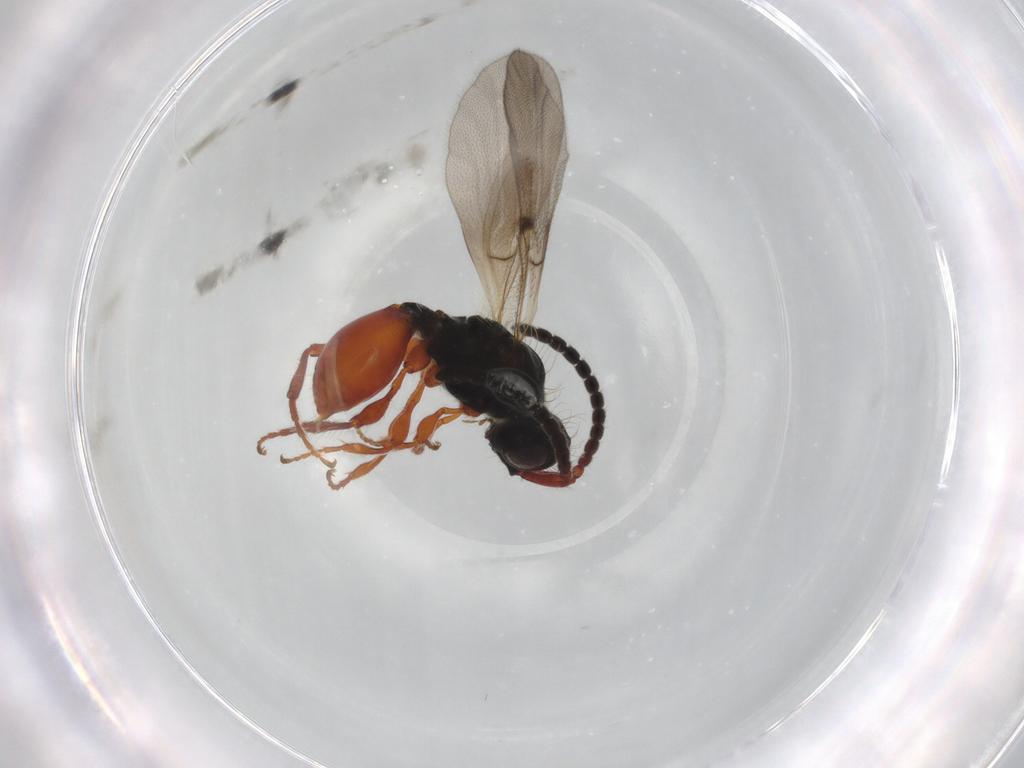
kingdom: Animalia
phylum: Arthropoda
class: Insecta
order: Hymenoptera
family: Diapriidae
